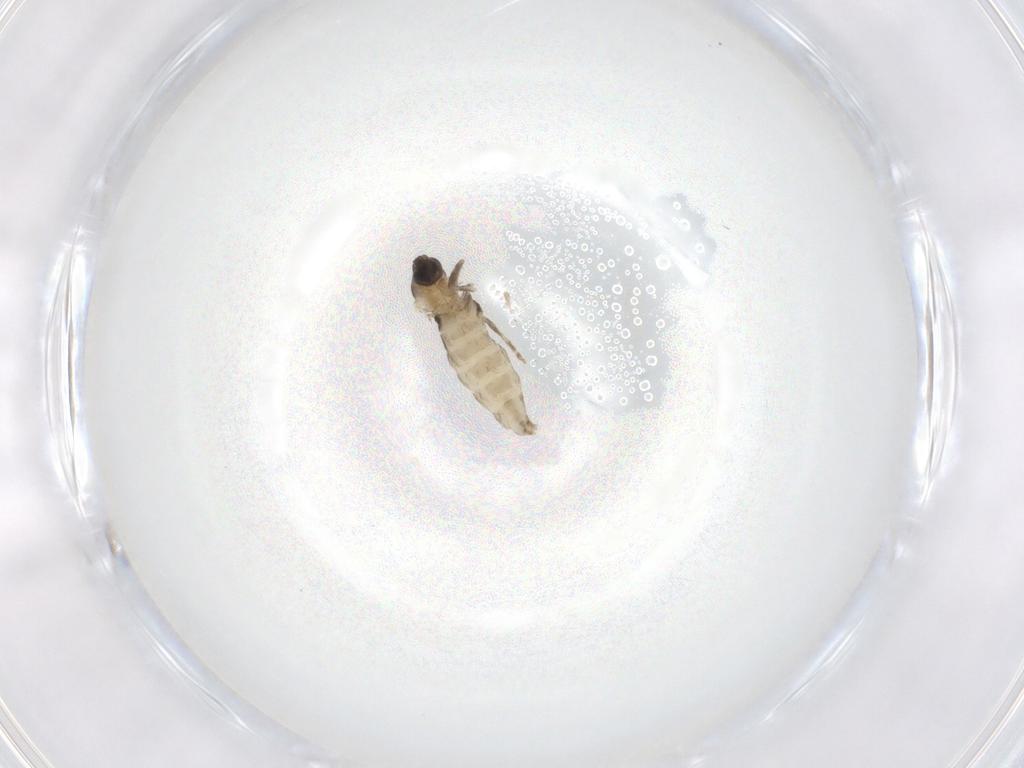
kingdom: Animalia
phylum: Arthropoda
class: Insecta
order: Diptera
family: Cecidomyiidae
